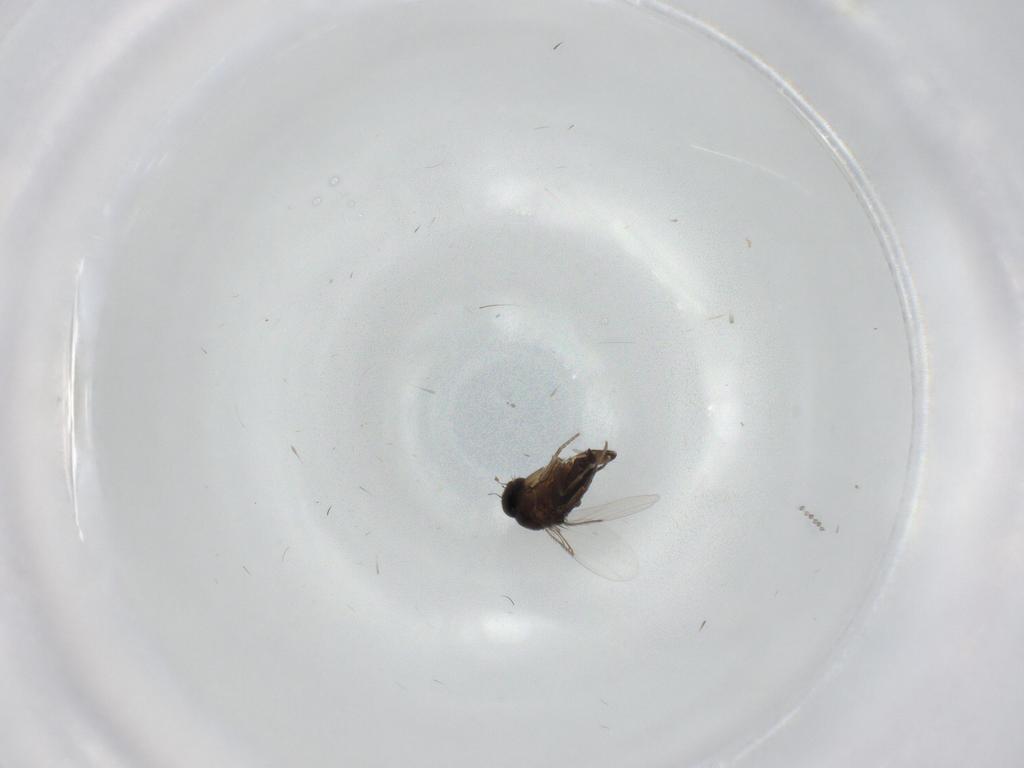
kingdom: Animalia
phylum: Arthropoda
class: Insecta
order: Diptera
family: Phoridae
